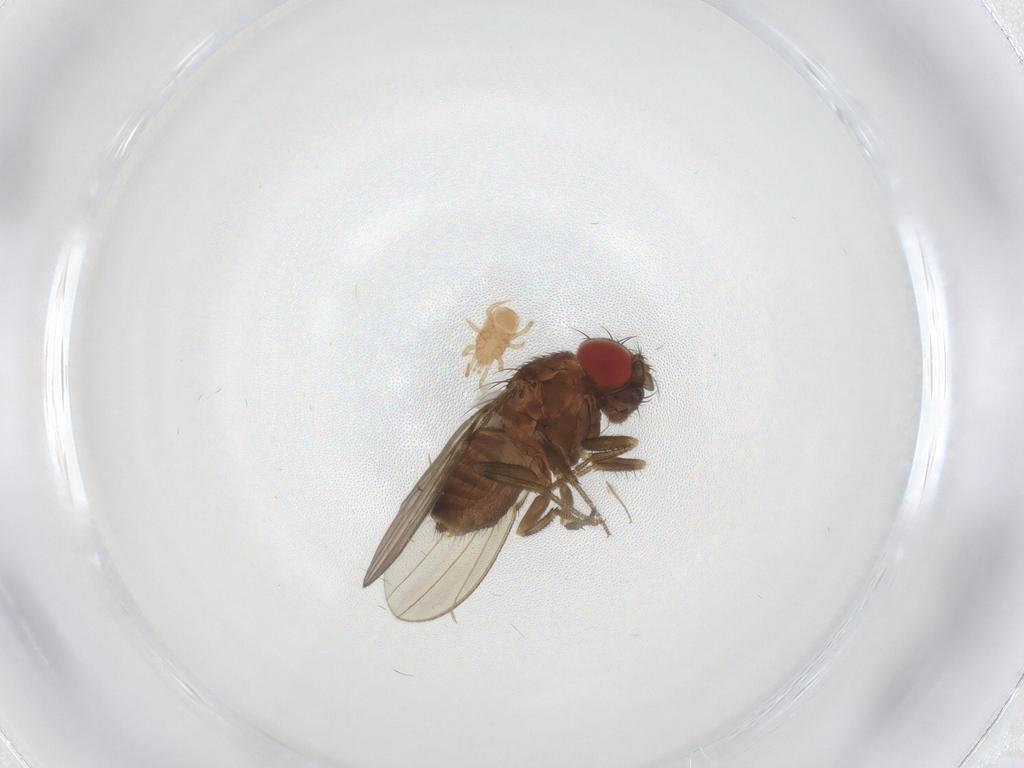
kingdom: Animalia
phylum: Arthropoda
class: Insecta
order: Diptera
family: Drosophilidae
